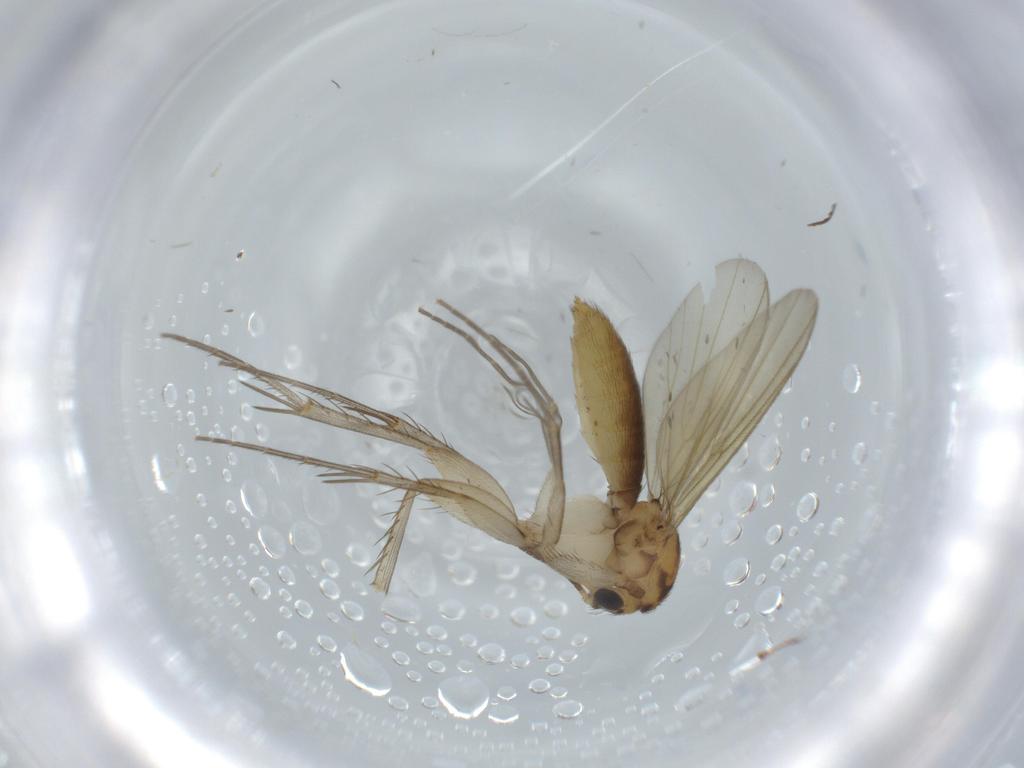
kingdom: Animalia
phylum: Arthropoda
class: Insecta
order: Diptera
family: Mycetophilidae
